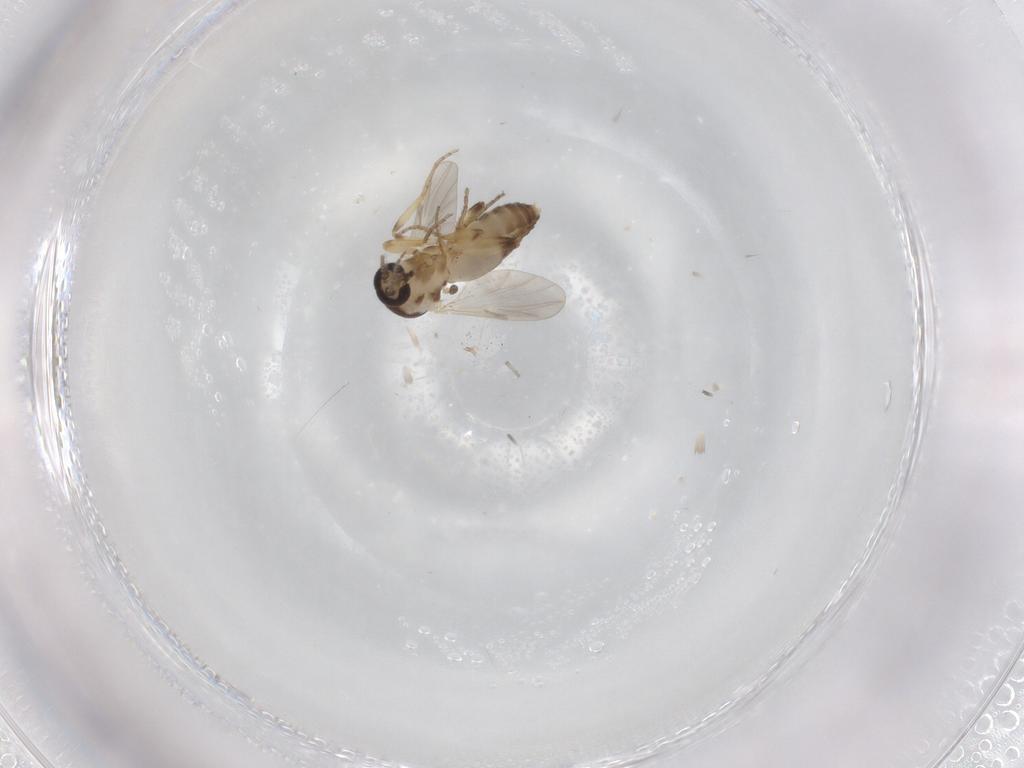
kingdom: Animalia
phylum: Arthropoda
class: Insecta
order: Diptera
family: Ceratopogonidae
